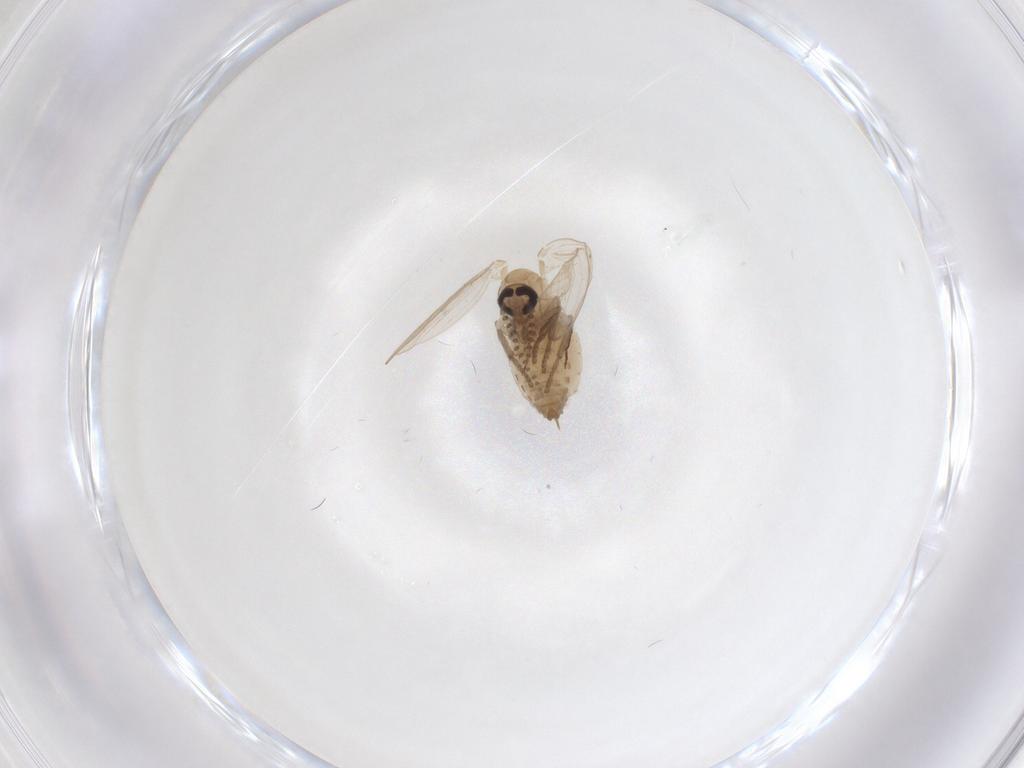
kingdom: Animalia
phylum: Arthropoda
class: Insecta
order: Diptera
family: Psychodidae
